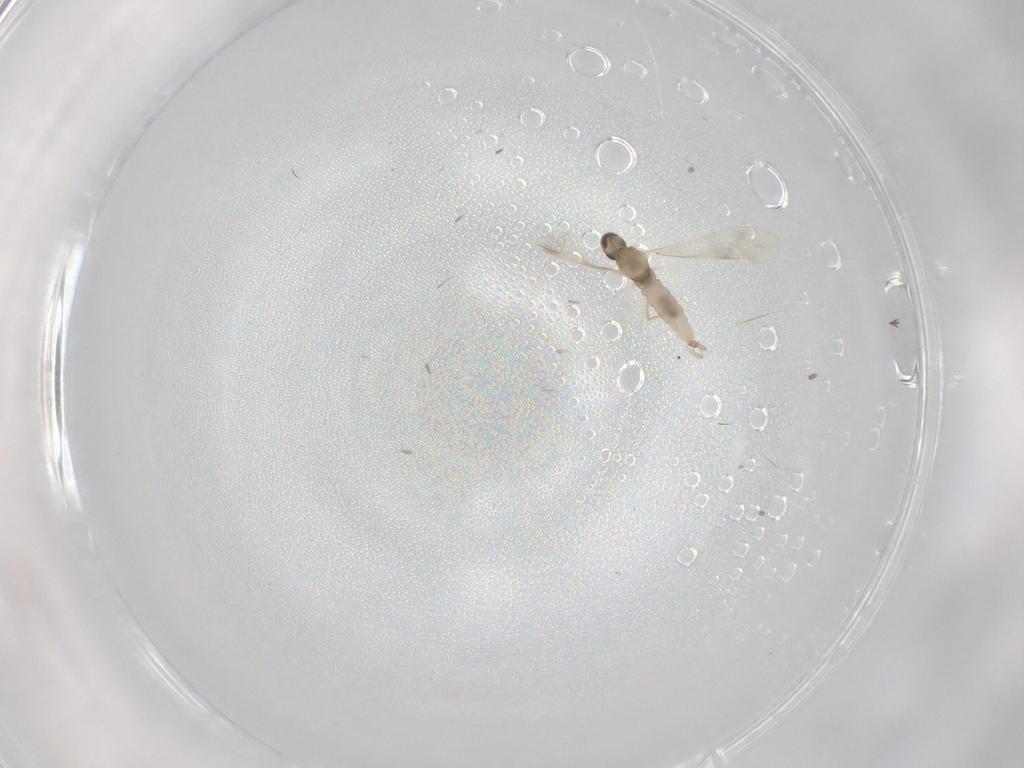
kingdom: Animalia
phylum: Arthropoda
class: Insecta
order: Diptera
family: Cecidomyiidae
